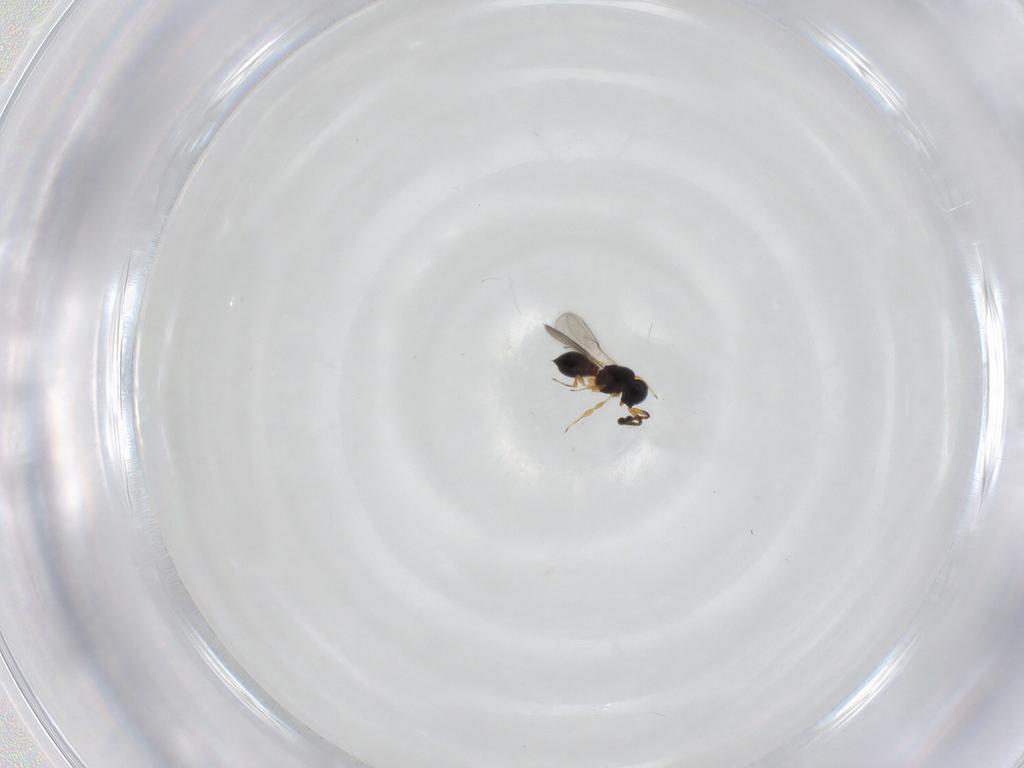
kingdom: Animalia
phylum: Arthropoda
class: Insecta
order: Hymenoptera
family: Scelionidae
